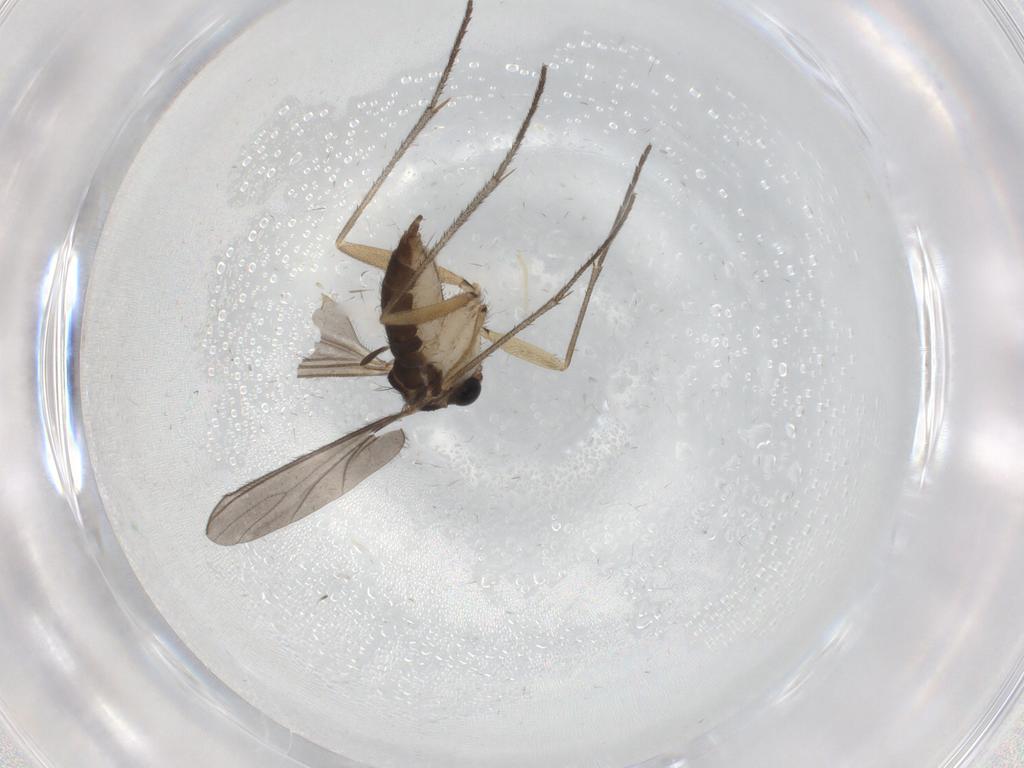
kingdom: Animalia
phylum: Arthropoda
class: Insecta
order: Diptera
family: Sciaridae
